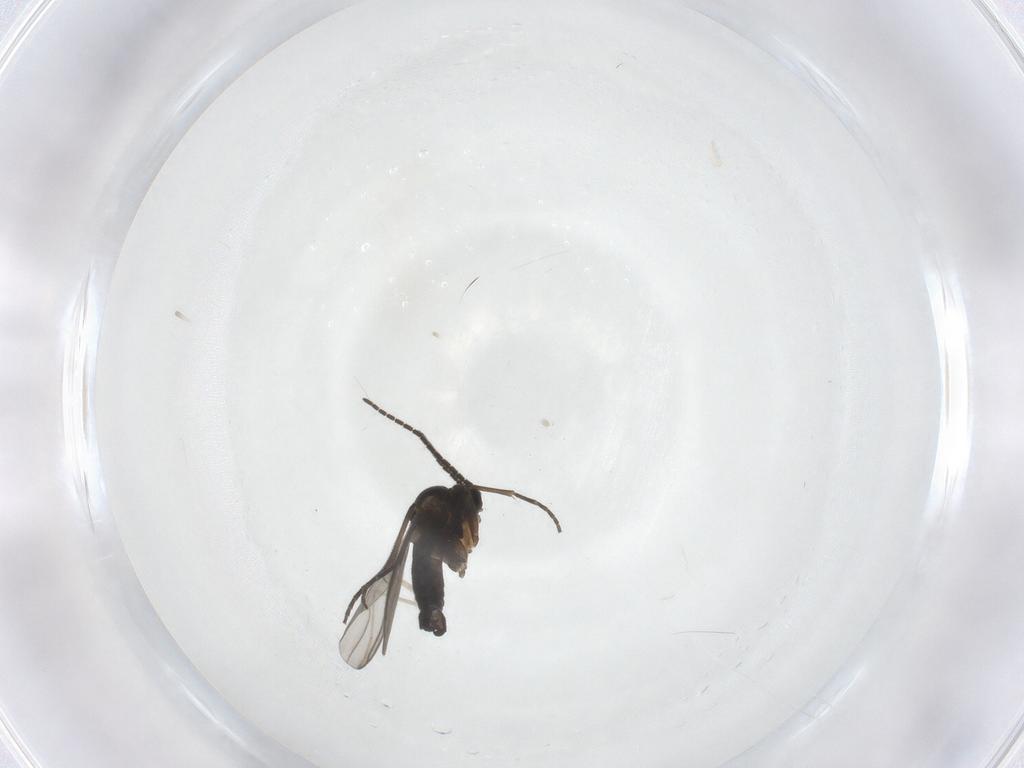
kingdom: Animalia
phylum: Arthropoda
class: Insecta
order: Diptera
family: Sciaridae
